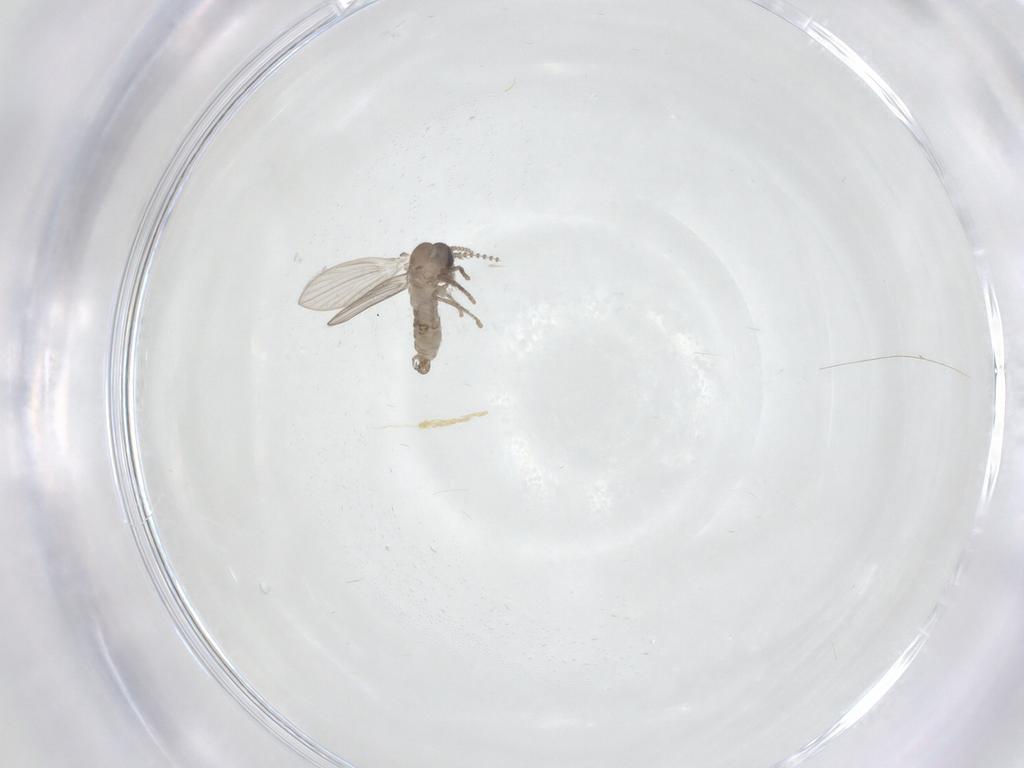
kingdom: Animalia
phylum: Arthropoda
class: Insecta
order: Diptera
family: Psychodidae
